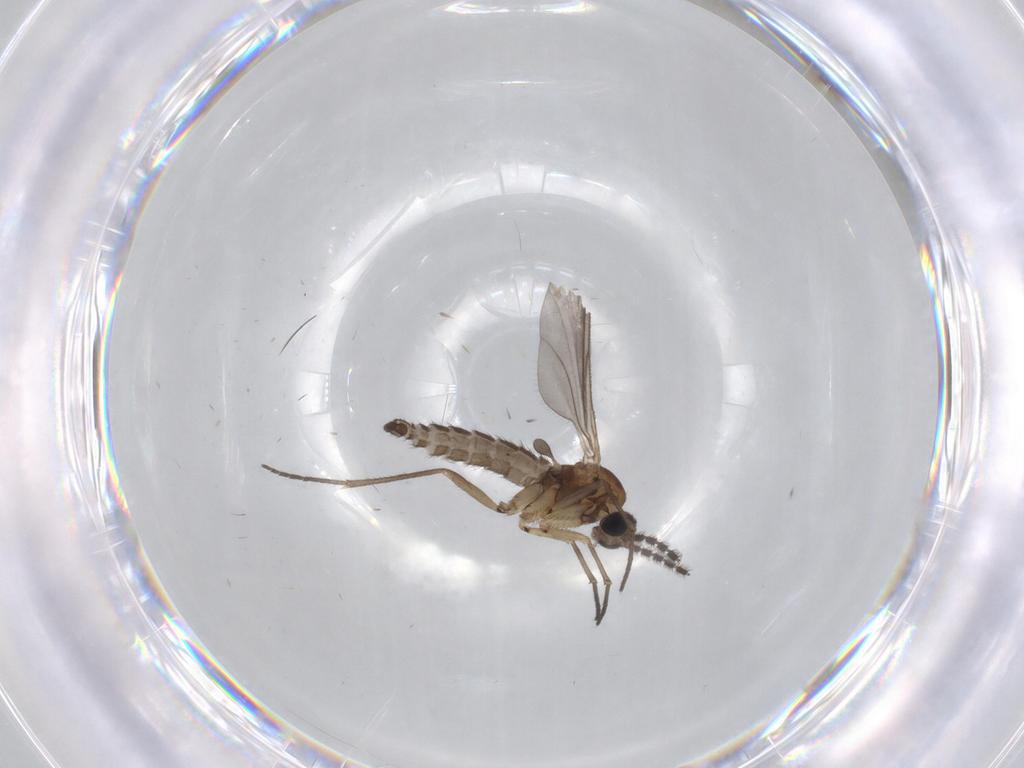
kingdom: Animalia
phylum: Arthropoda
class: Insecta
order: Diptera
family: Sciaridae
